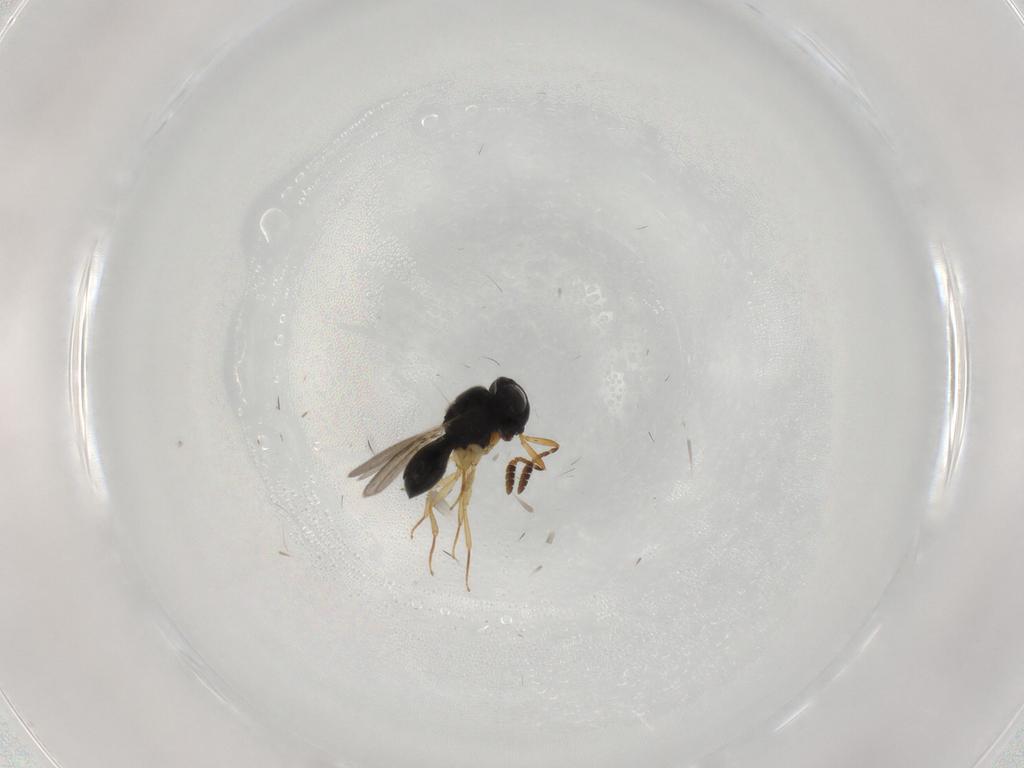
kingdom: Animalia
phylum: Arthropoda
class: Insecta
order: Hymenoptera
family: Scelionidae
